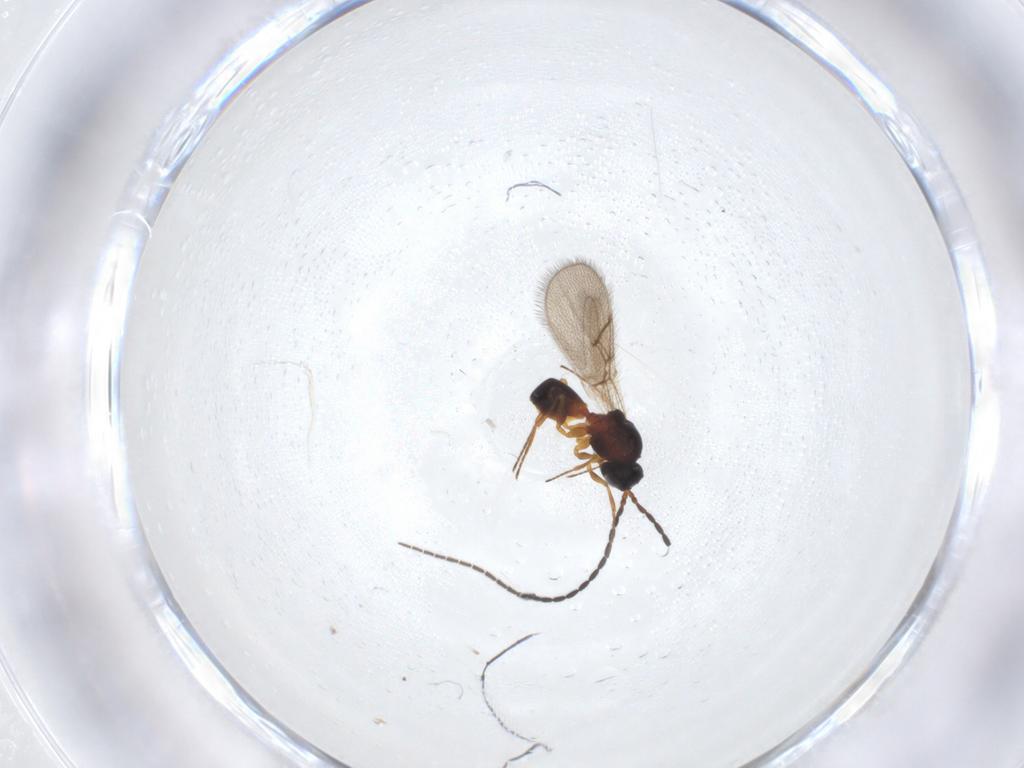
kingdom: Animalia
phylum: Arthropoda
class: Insecta
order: Hymenoptera
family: Figitidae
